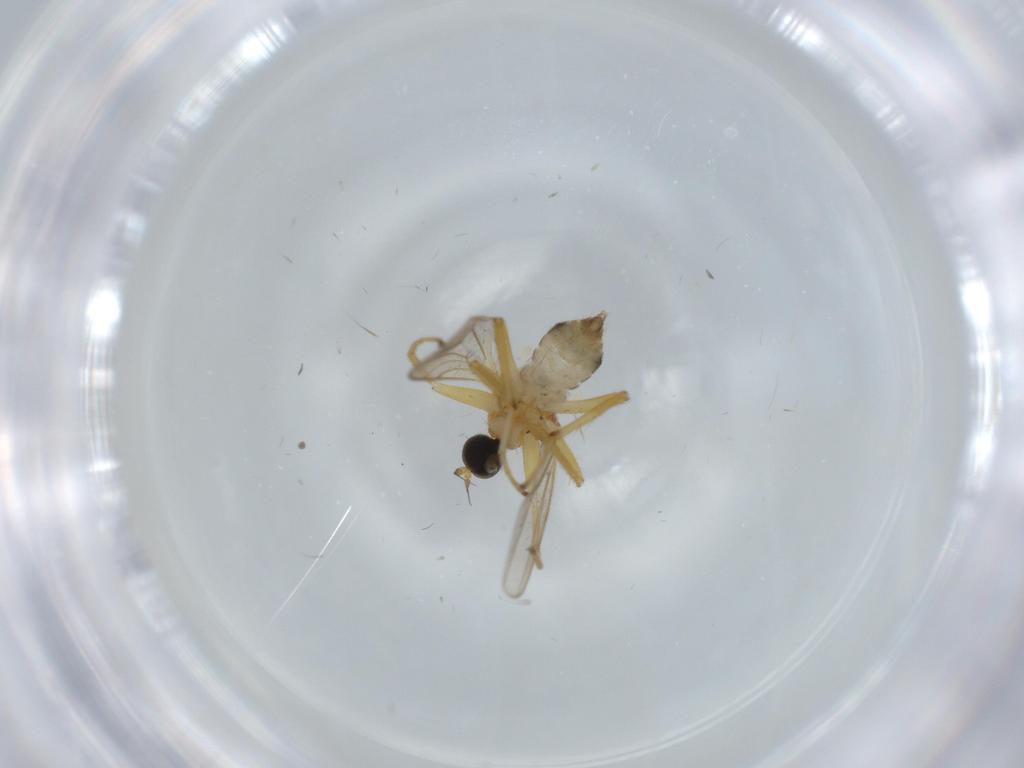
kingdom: Animalia
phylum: Arthropoda
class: Insecta
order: Diptera
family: Hybotidae
